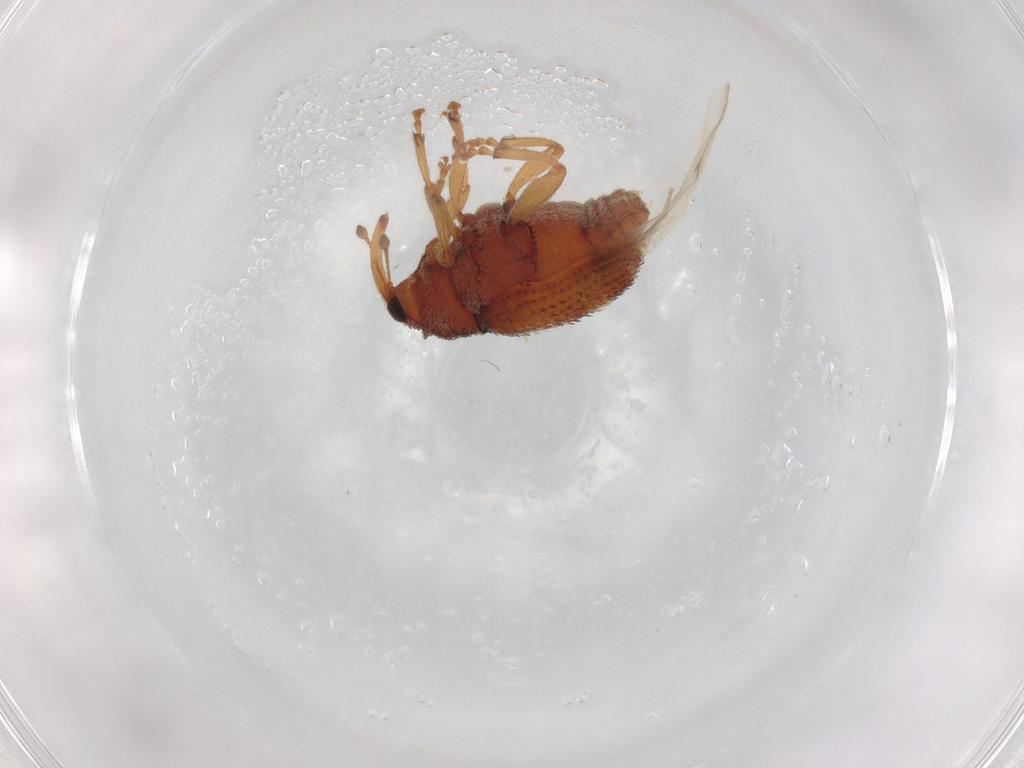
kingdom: Animalia
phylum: Arthropoda
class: Insecta
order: Coleoptera
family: Curculionidae
